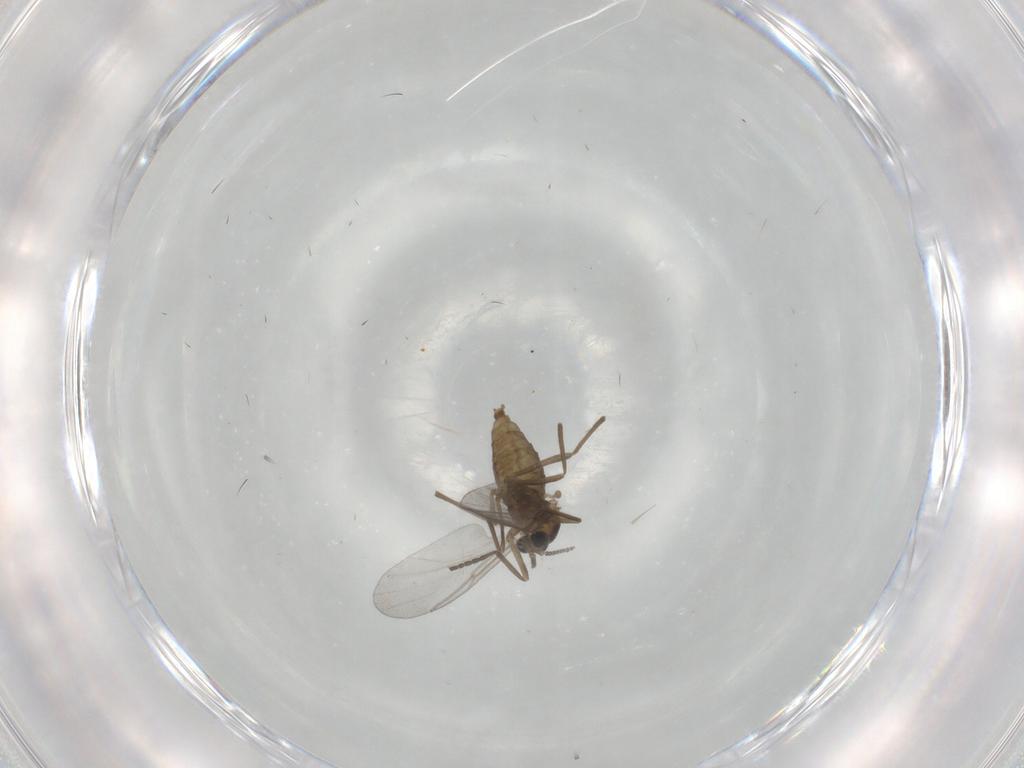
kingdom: Animalia
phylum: Arthropoda
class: Insecta
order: Diptera
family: Cecidomyiidae
